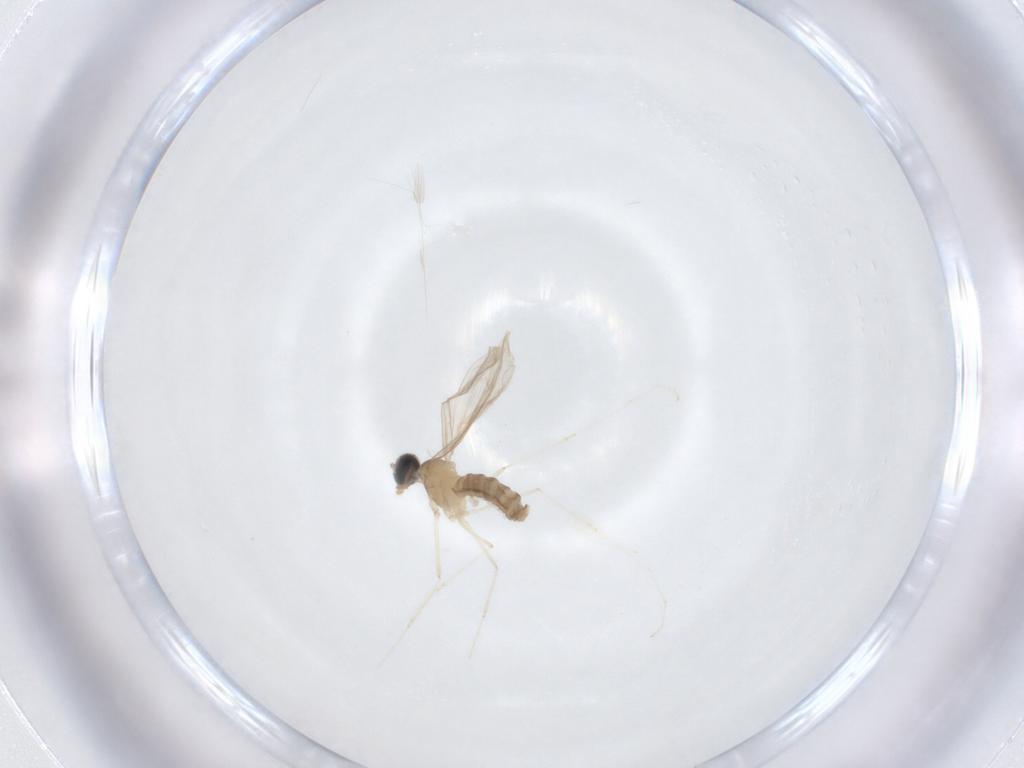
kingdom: Animalia
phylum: Arthropoda
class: Insecta
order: Diptera
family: Cecidomyiidae
